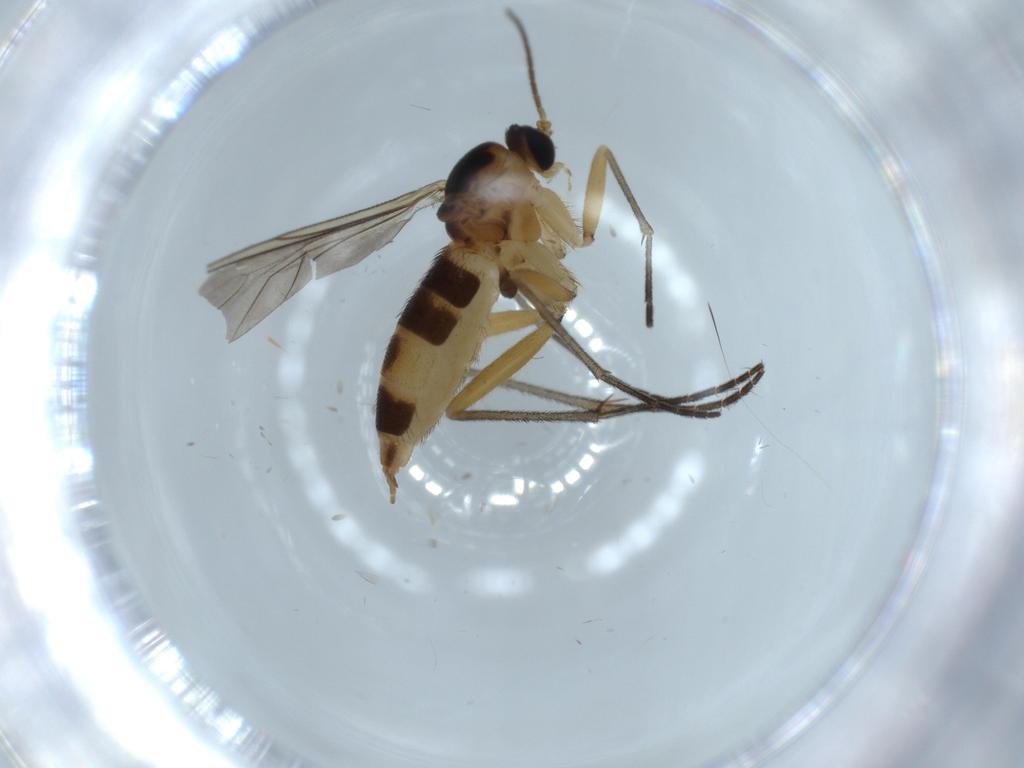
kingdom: Animalia
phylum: Arthropoda
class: Insecta
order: Diptera
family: Sciaridae
